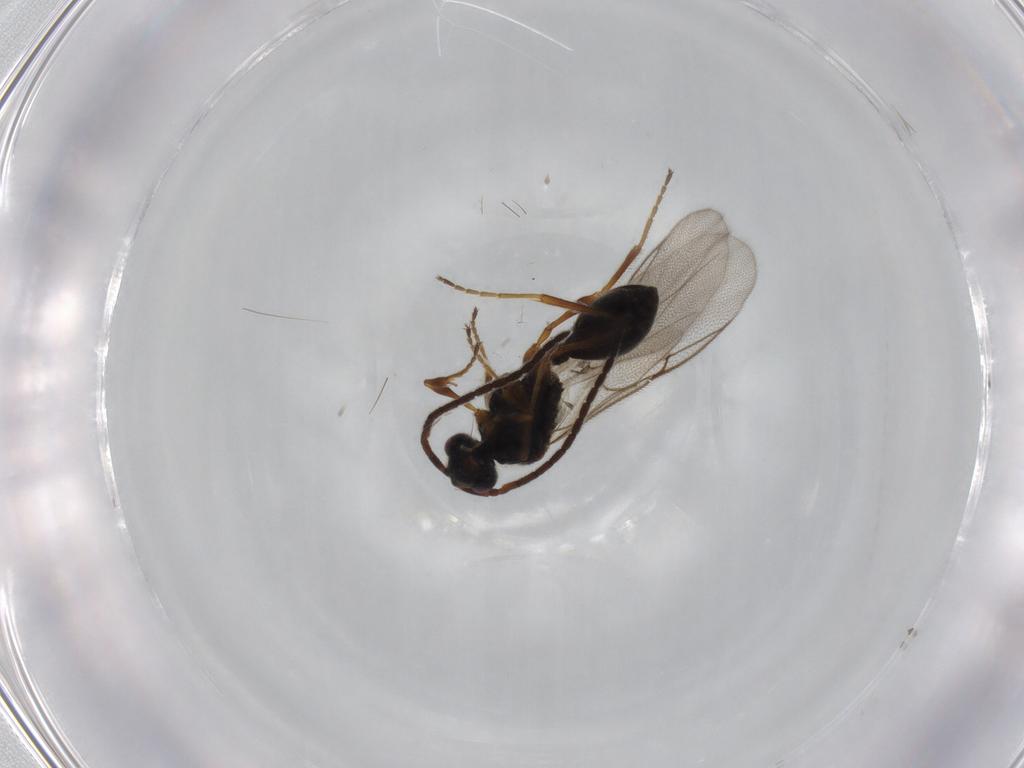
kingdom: Animalia
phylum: Arthropoda
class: Insecta
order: Hymenoptera
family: Diapriidae
